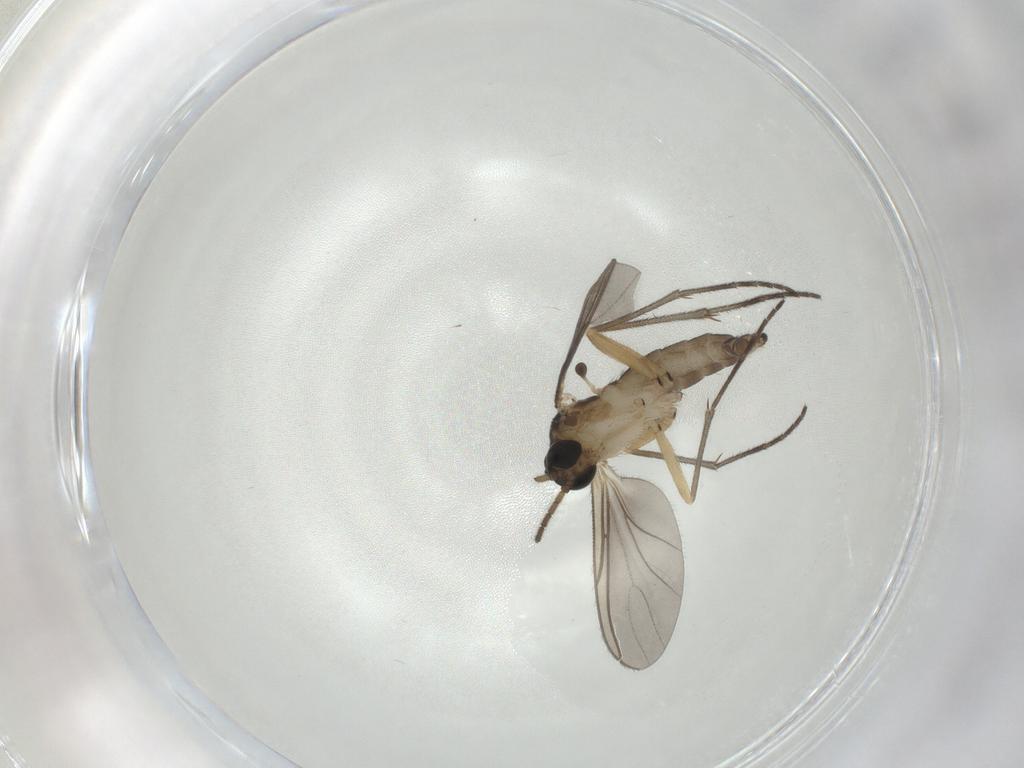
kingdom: Animalia
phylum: Arthropoda
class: Insecta
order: Diptera
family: Sciaridae
